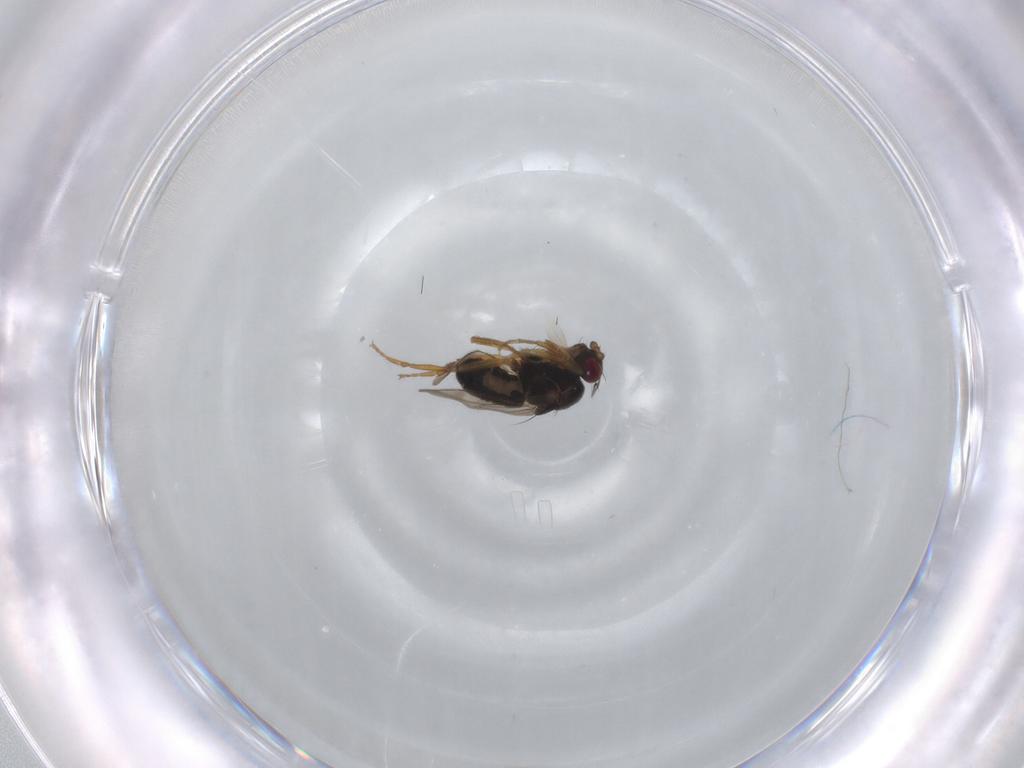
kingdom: Animalia
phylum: Arthropoda
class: Insecta
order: Diptera
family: Sphaeroceridae
